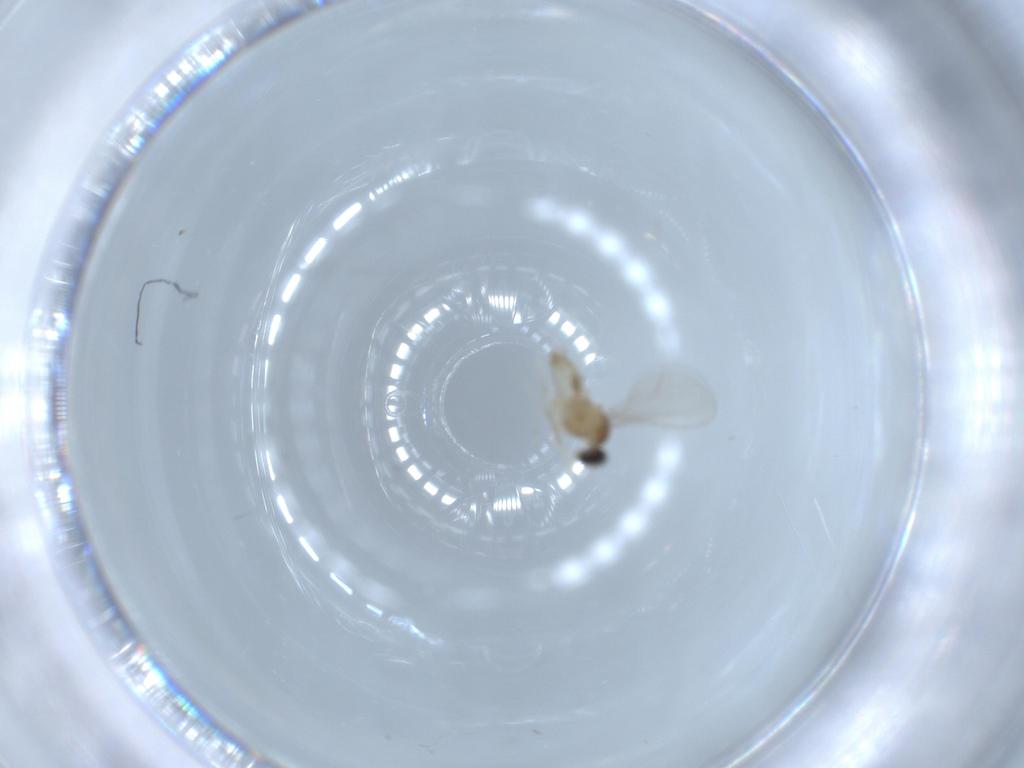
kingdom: Animalia
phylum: Arthropoda
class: Insecta
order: Diptera
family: Cecidomyiidae
